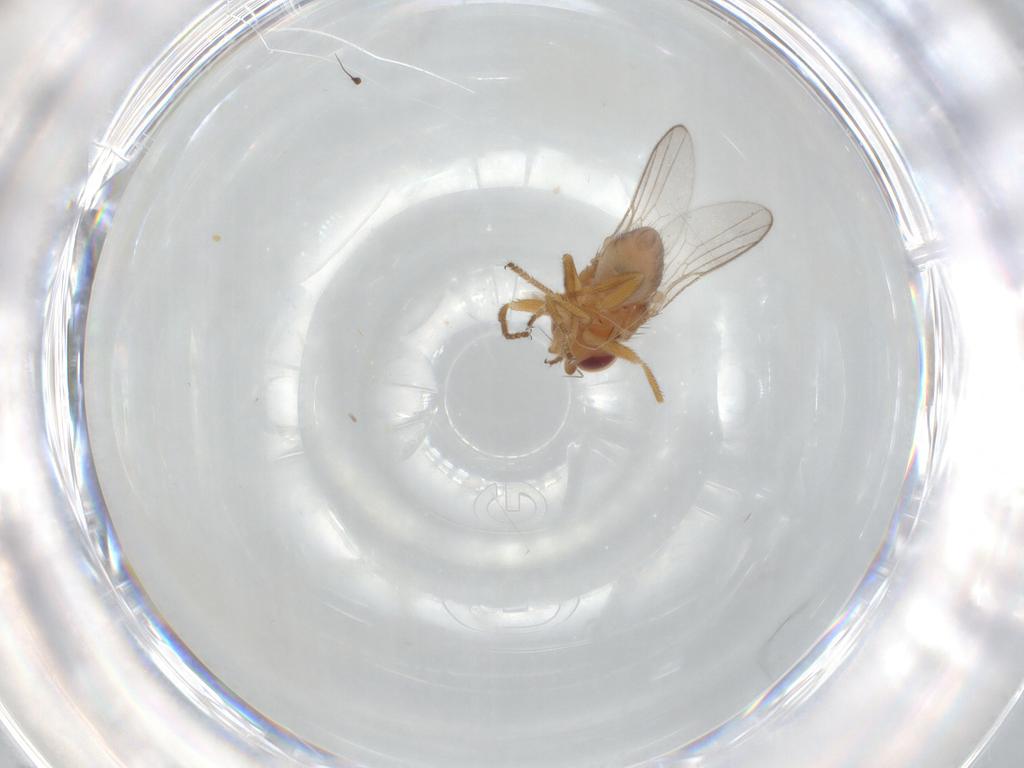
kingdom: Animalia
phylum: Arthropoda
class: Insecta
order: Diptera
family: Chloropidae
